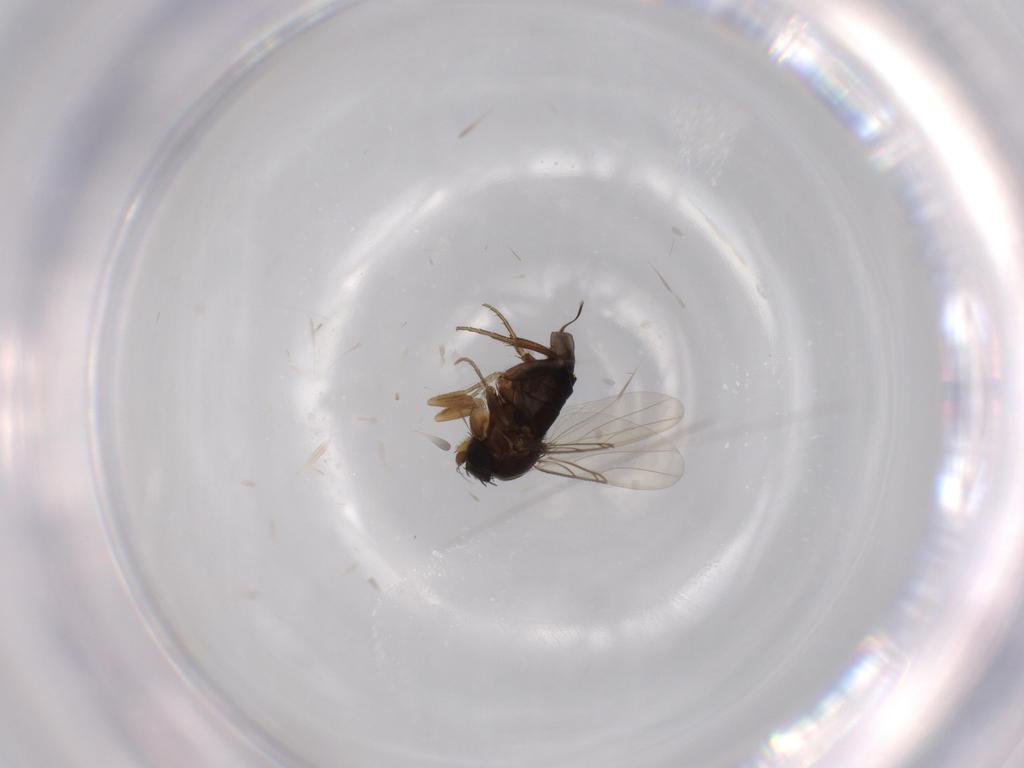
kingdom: Animalia
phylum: Arthropoda
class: Insecta
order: Diptera
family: Phoridae
